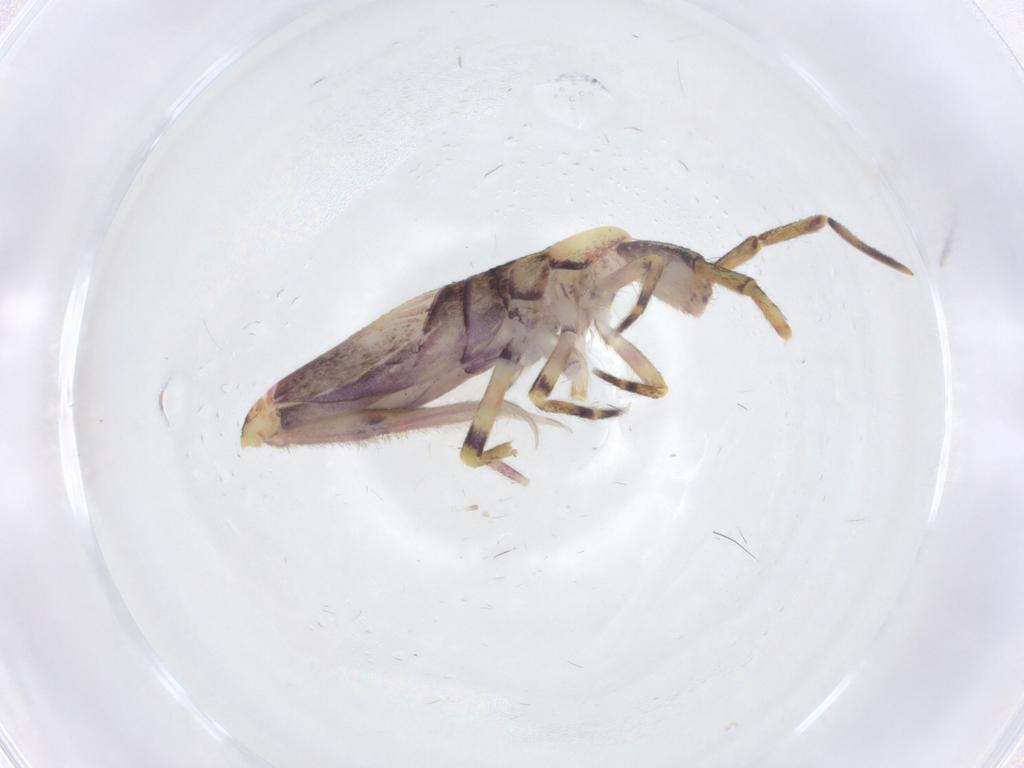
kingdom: Animalia
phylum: Arthropoda
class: Collembola
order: Entomobryomorpha
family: Entomobryidae
